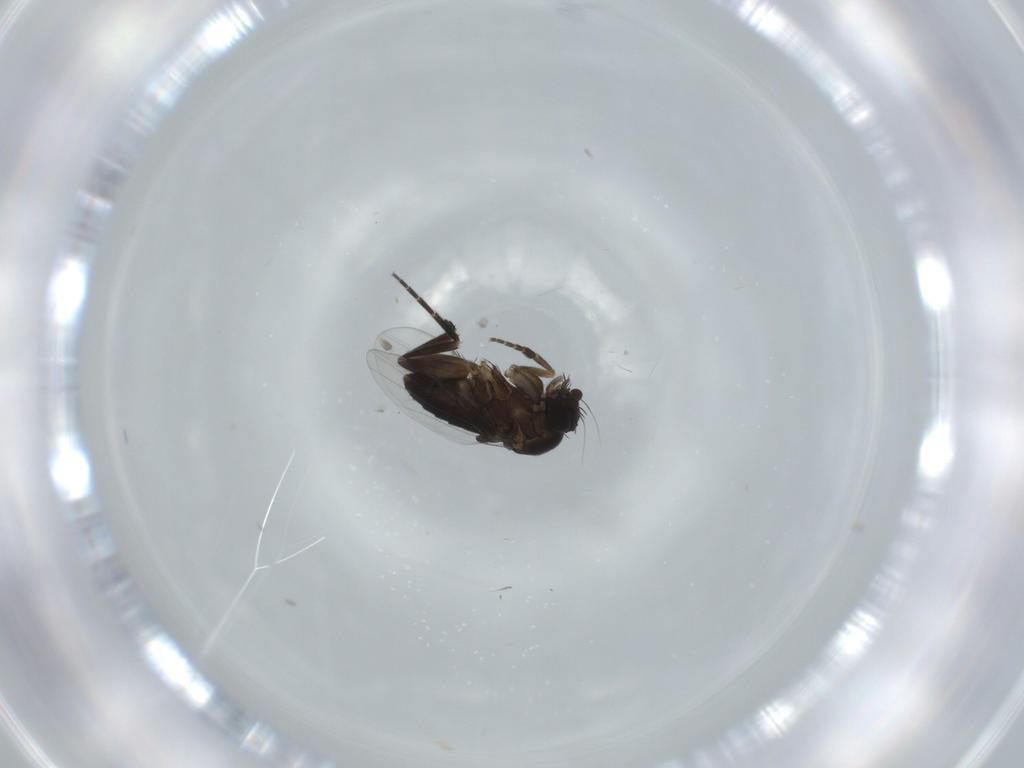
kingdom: Animalia
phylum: Arthropoda
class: Insecta
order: Diptera
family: Phoridae
